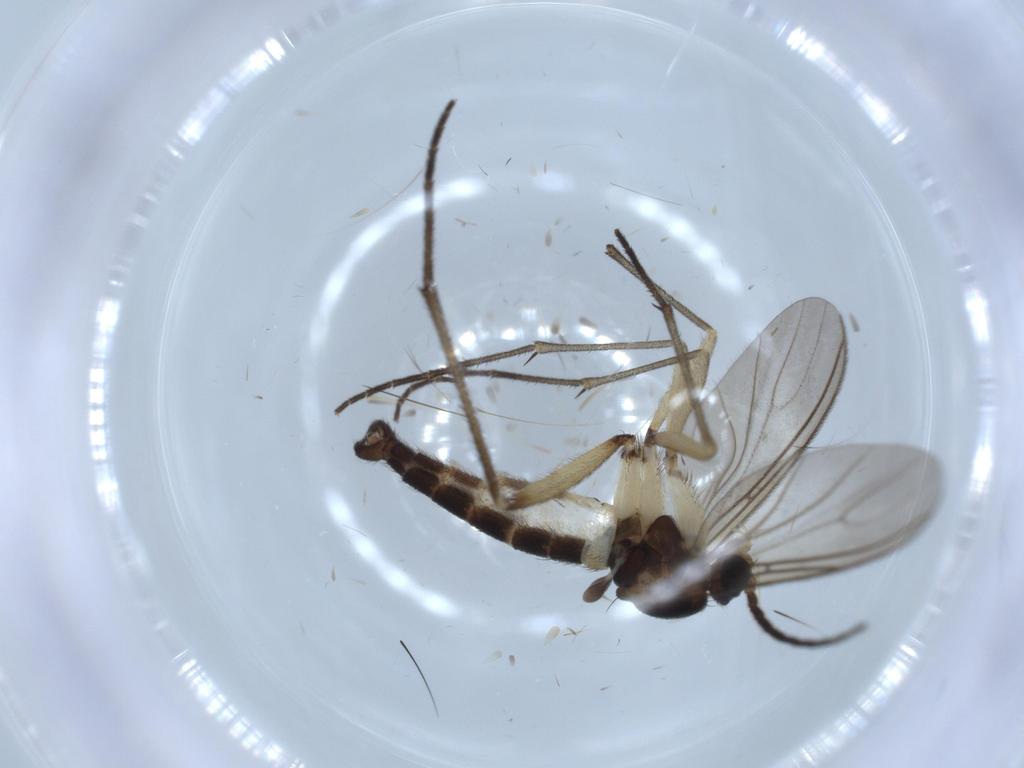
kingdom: Animalia
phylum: Arthropoda
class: Insecta
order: Diptera
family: Sciaridae
